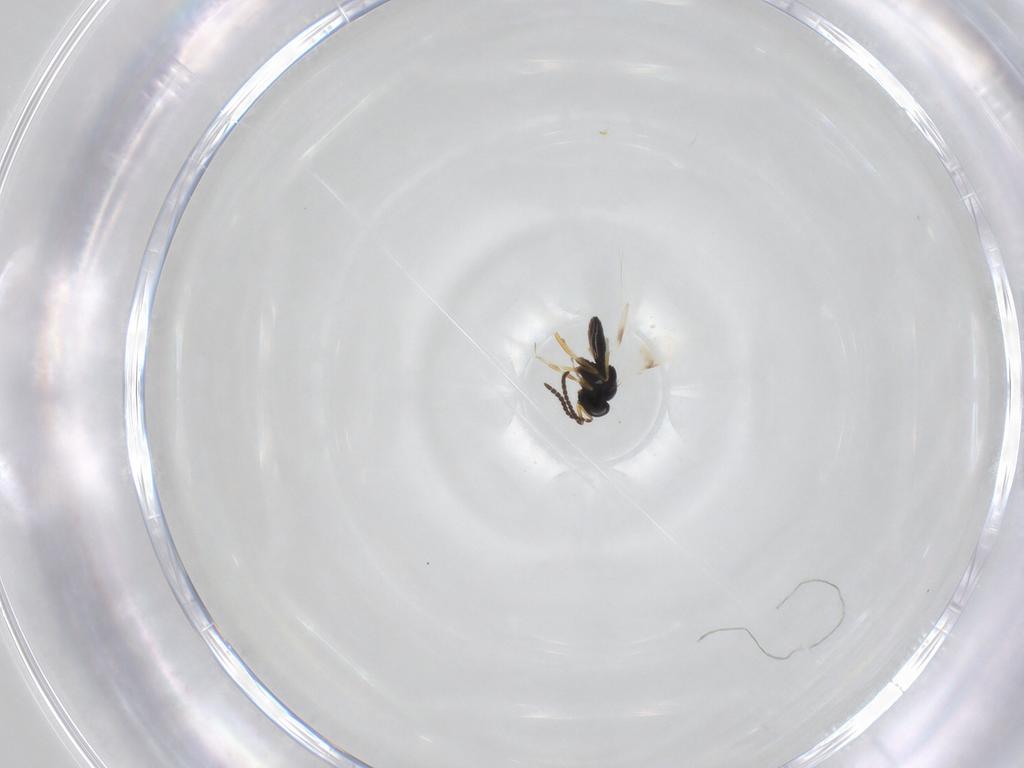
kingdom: Animalia
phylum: Arthropoda
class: Insecta
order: Hymenoptera
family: Scelionidae
